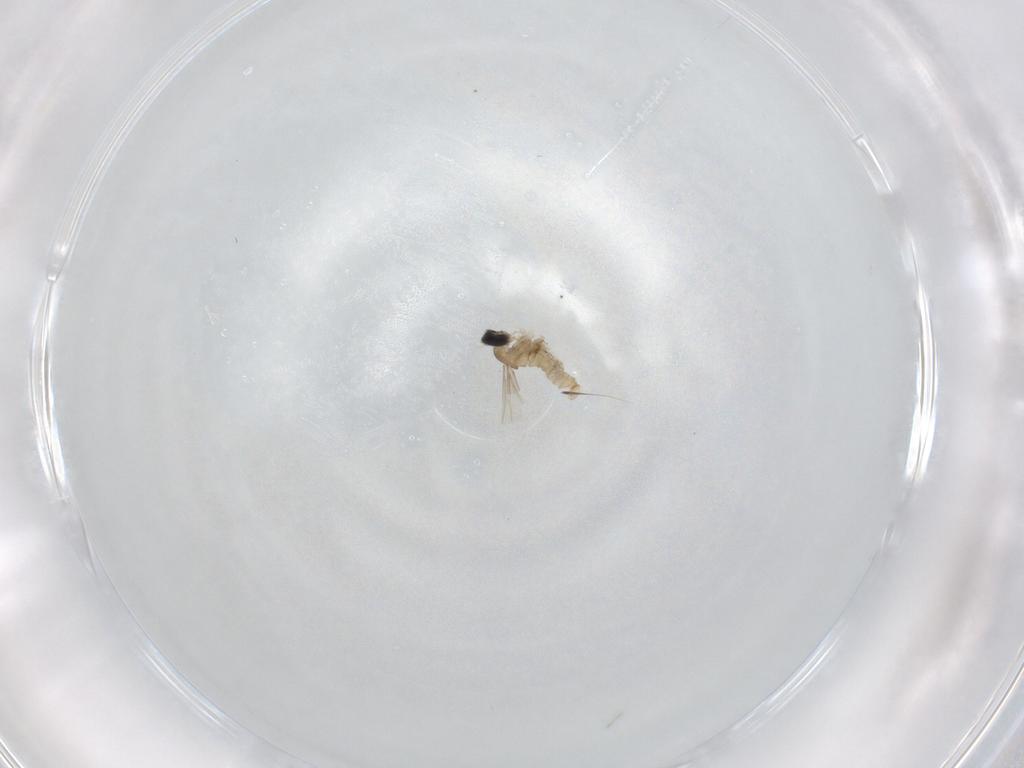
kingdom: Animalia
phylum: Arthropoda
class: Insecta
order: Diptera
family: Cecidomyiidae
